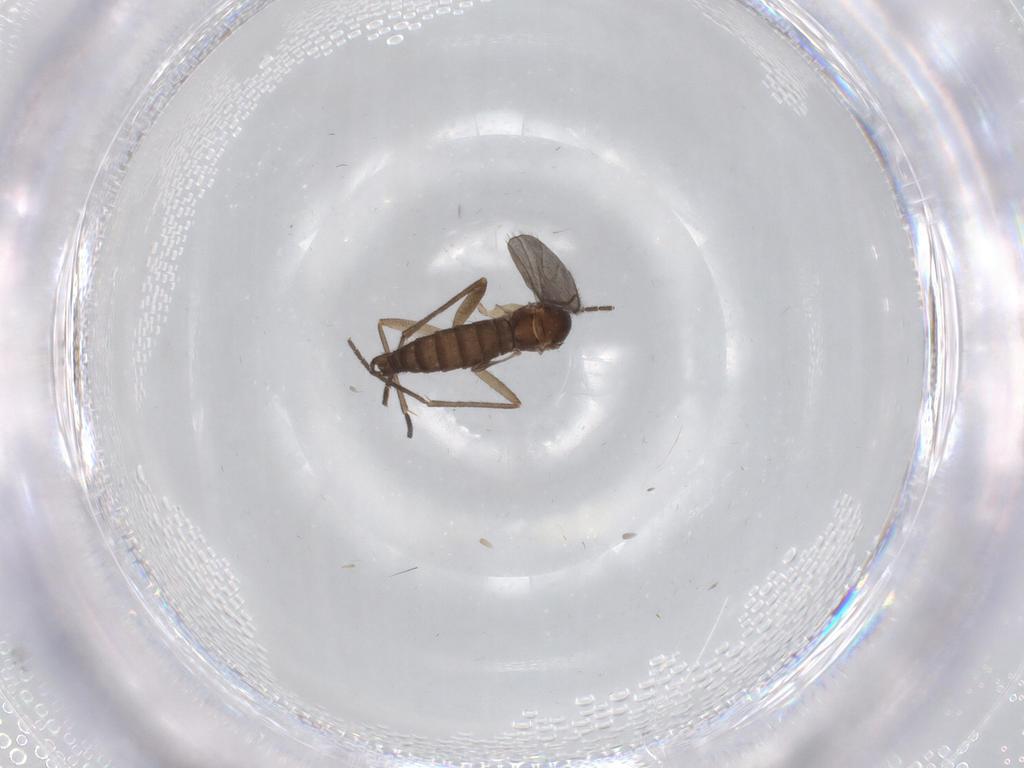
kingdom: Animalia
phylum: Arthropoda
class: Insecta
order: Diptera
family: Sciaridae
